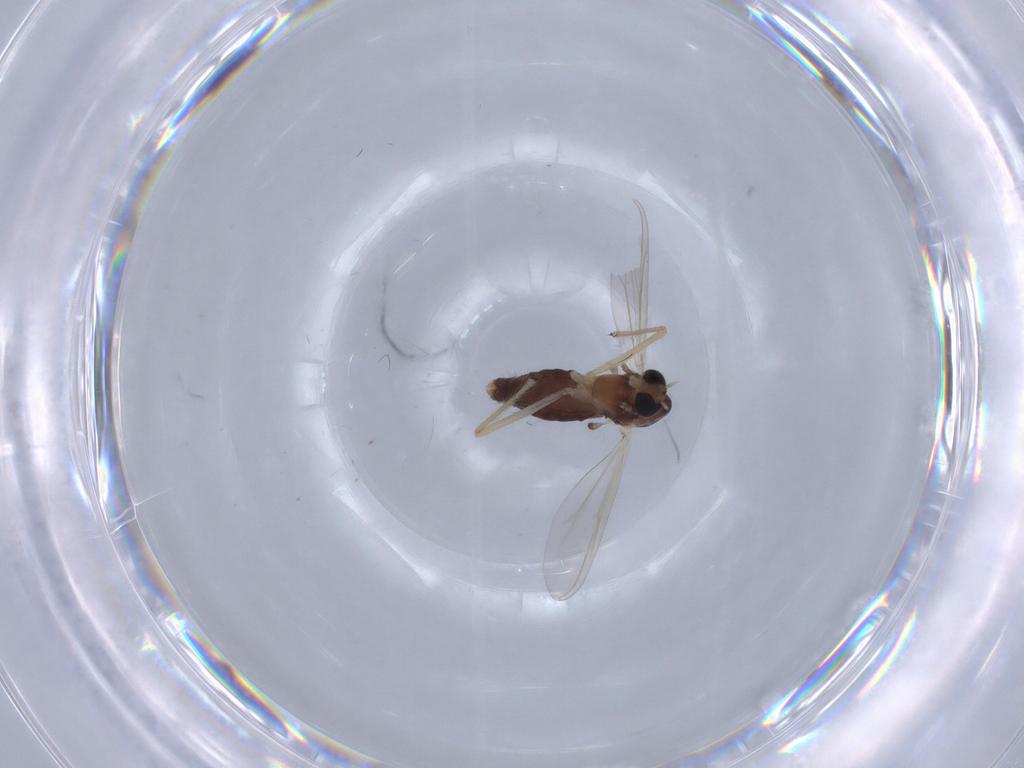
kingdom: Animalia
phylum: Arthropoda
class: Insecta
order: Diptera
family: Chironomidae
